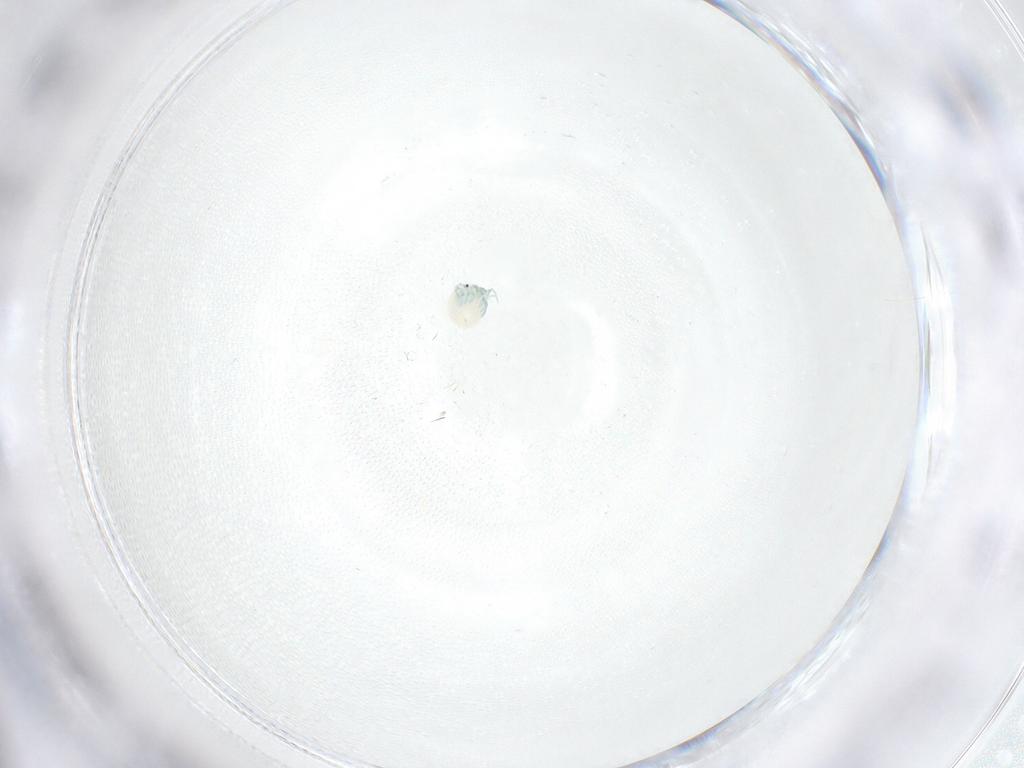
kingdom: Animalia
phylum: Arthropoda
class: Arachnida
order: Trombidiformes
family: Arrenuridae
